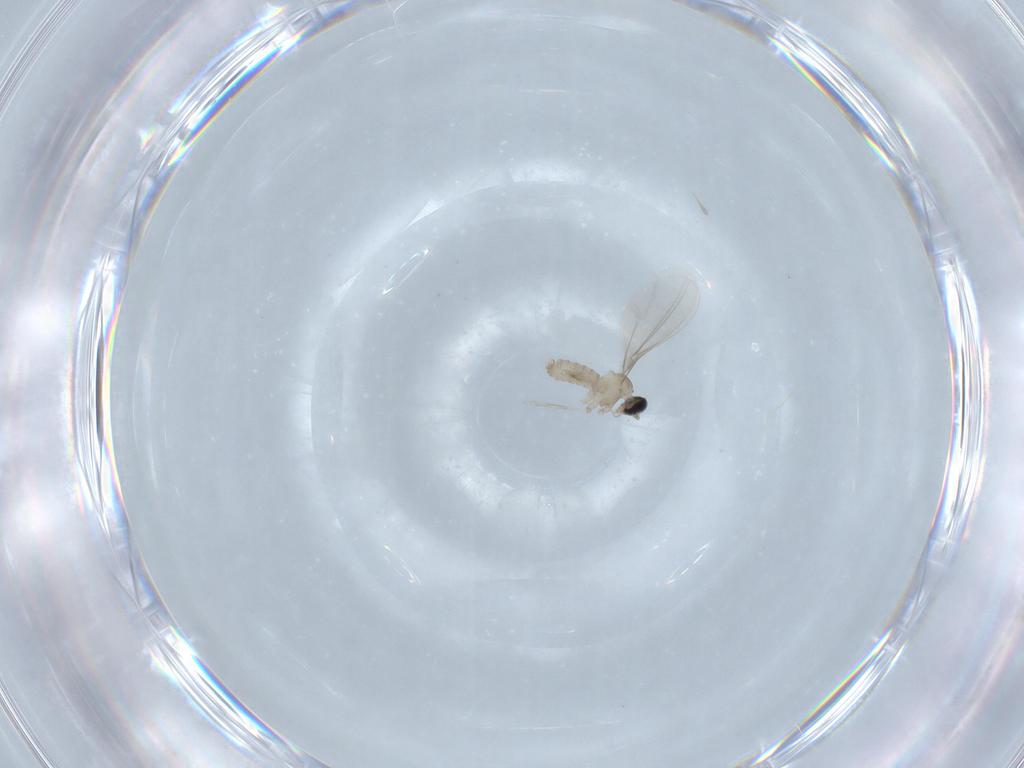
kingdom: Animalia
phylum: Arthropoda
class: Insecta
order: Diptera
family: Cecidomyiidae
